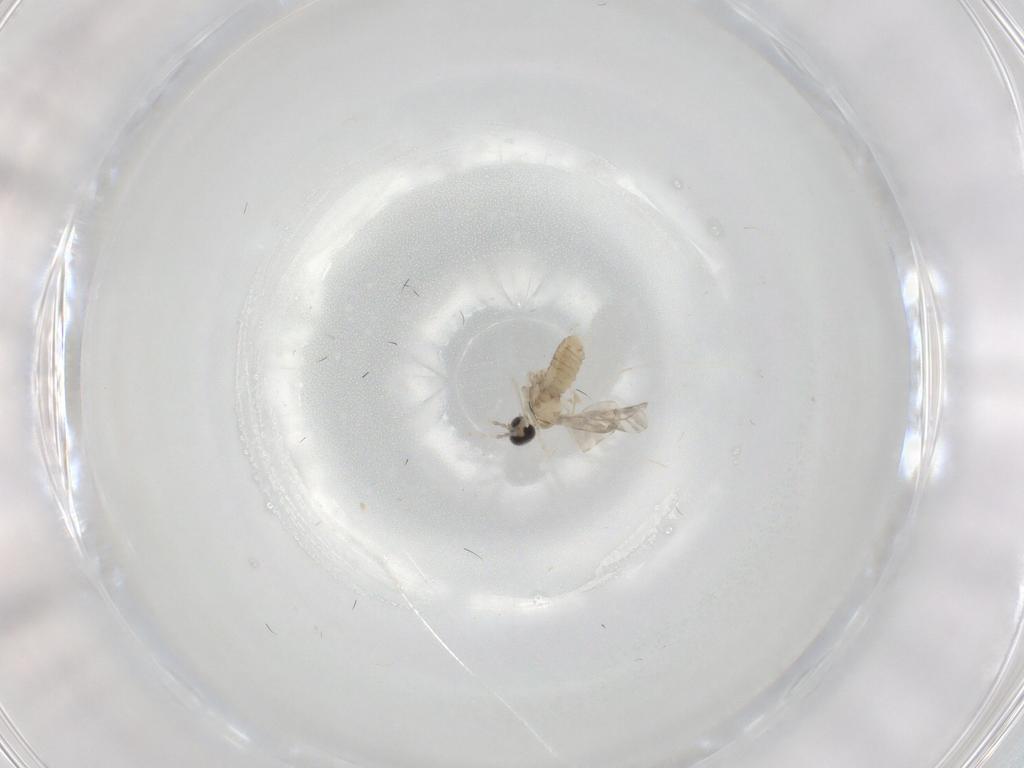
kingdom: Animalia
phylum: Arthropoda
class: Insecta
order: Diptera
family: Cecidomyiidae
